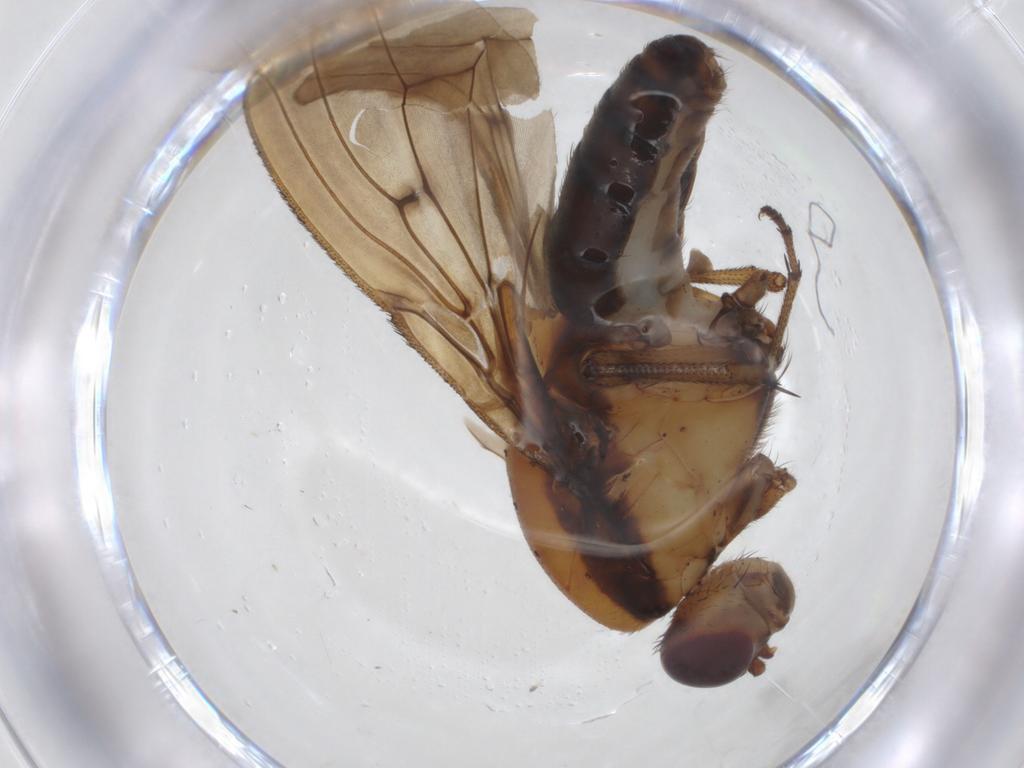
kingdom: Animalia
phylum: Arthropoda
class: Insecta
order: Diptera
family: Heleomyzidae
